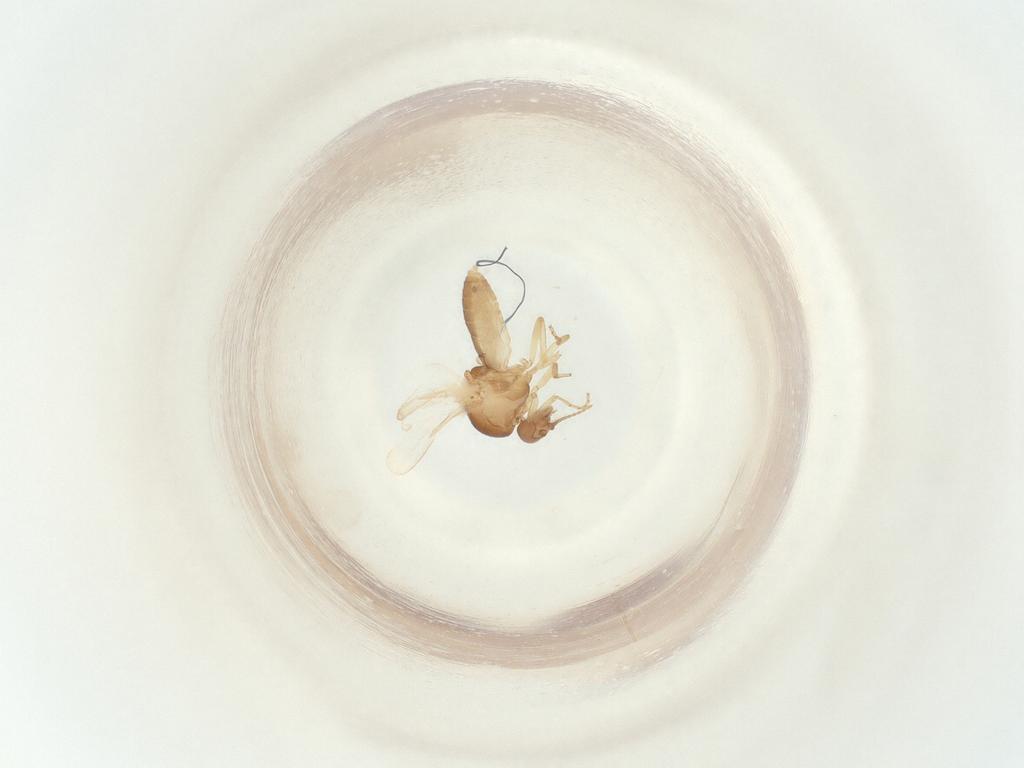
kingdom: Animalia
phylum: Arthropoda
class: Insecta
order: Diptera
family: Ceratopogonidae
